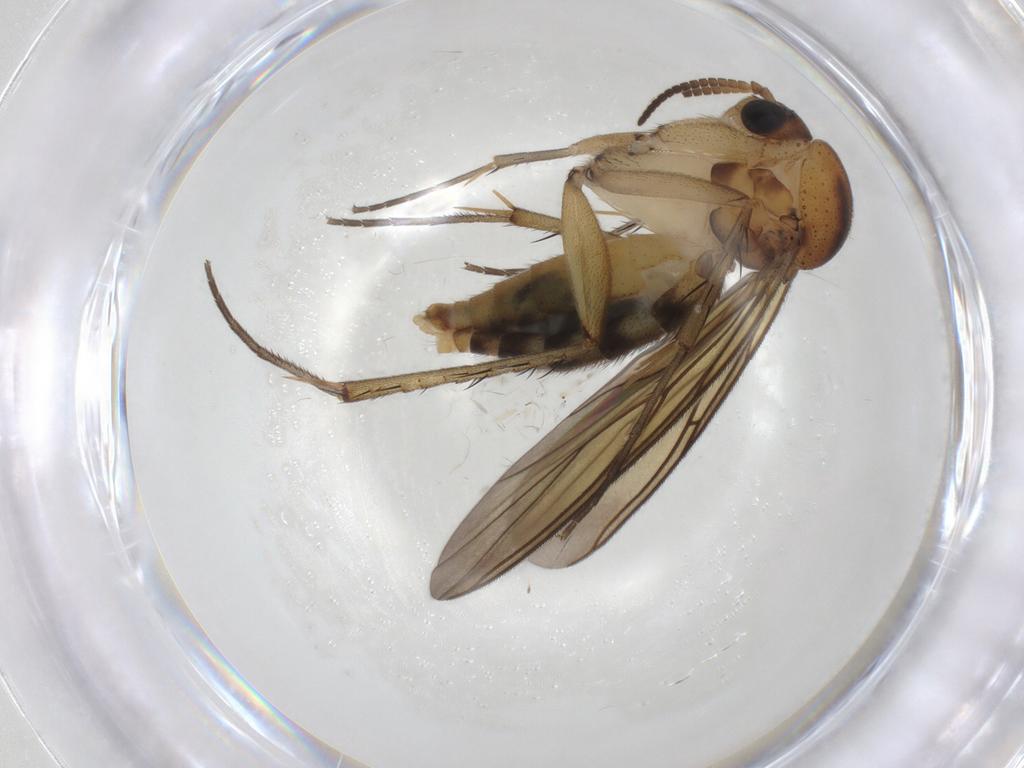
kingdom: Animalia
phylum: Arthropoda
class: Insecta
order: Diptera
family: Mycetophilidae
